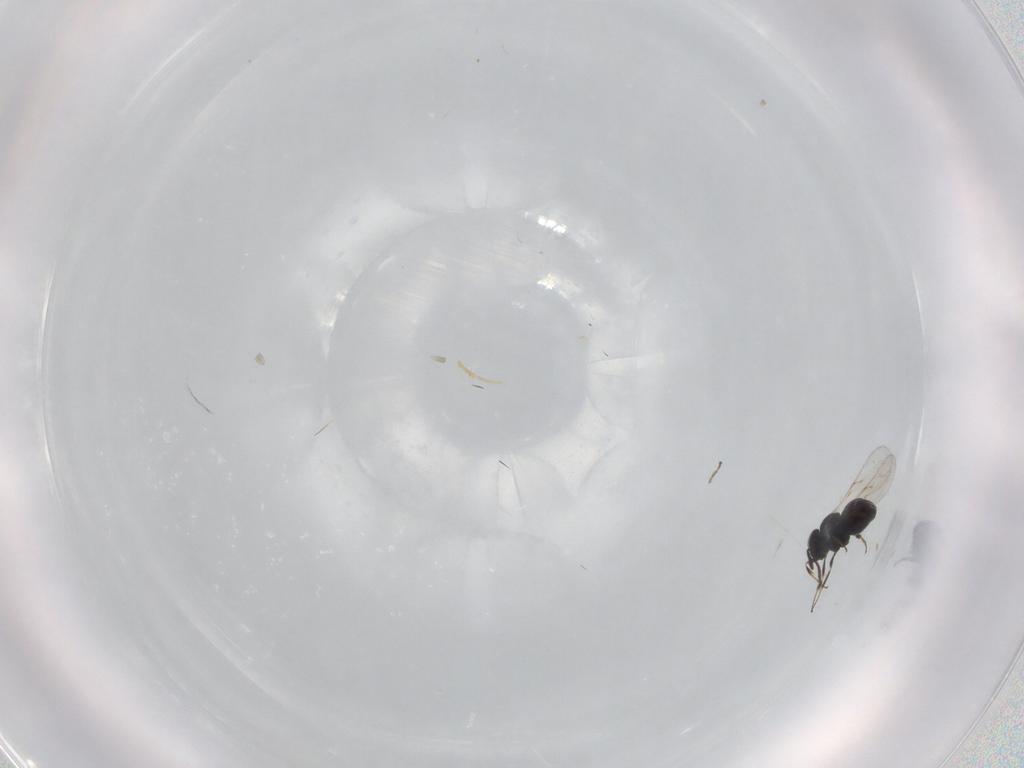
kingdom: Animalia
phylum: Arthropoda
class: Insecta
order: Hymenoptera
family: Scelionidae
